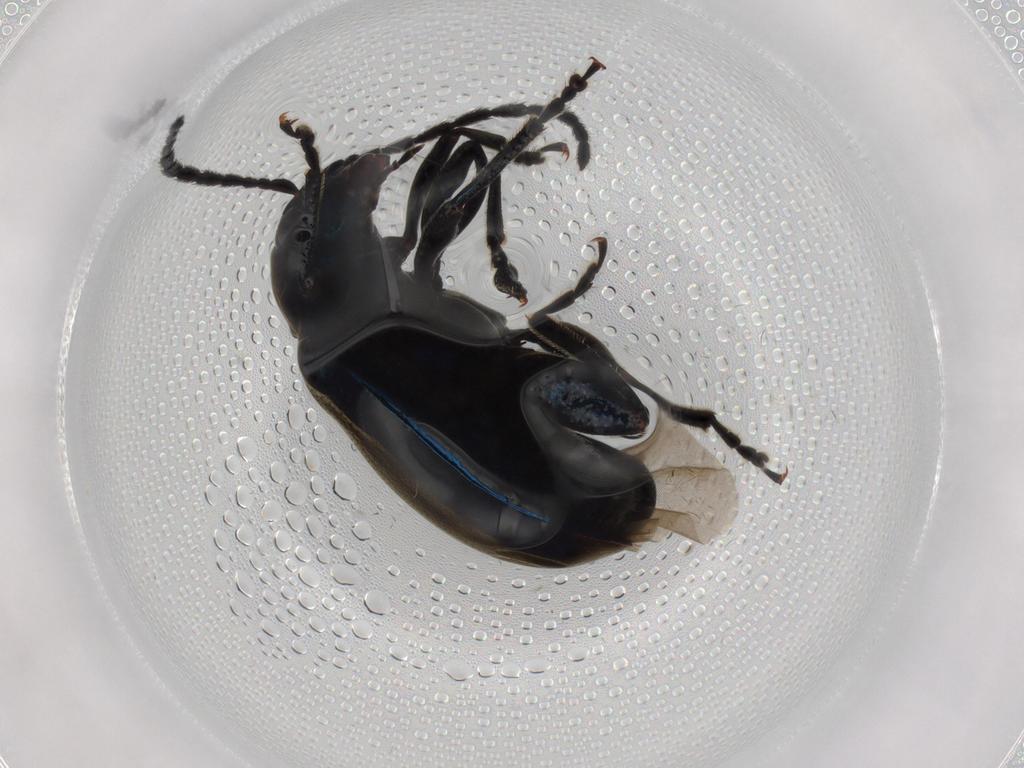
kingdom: Animalia
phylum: Arthropoda
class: Insecta
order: Coleoptera
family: Chrysomelidae
